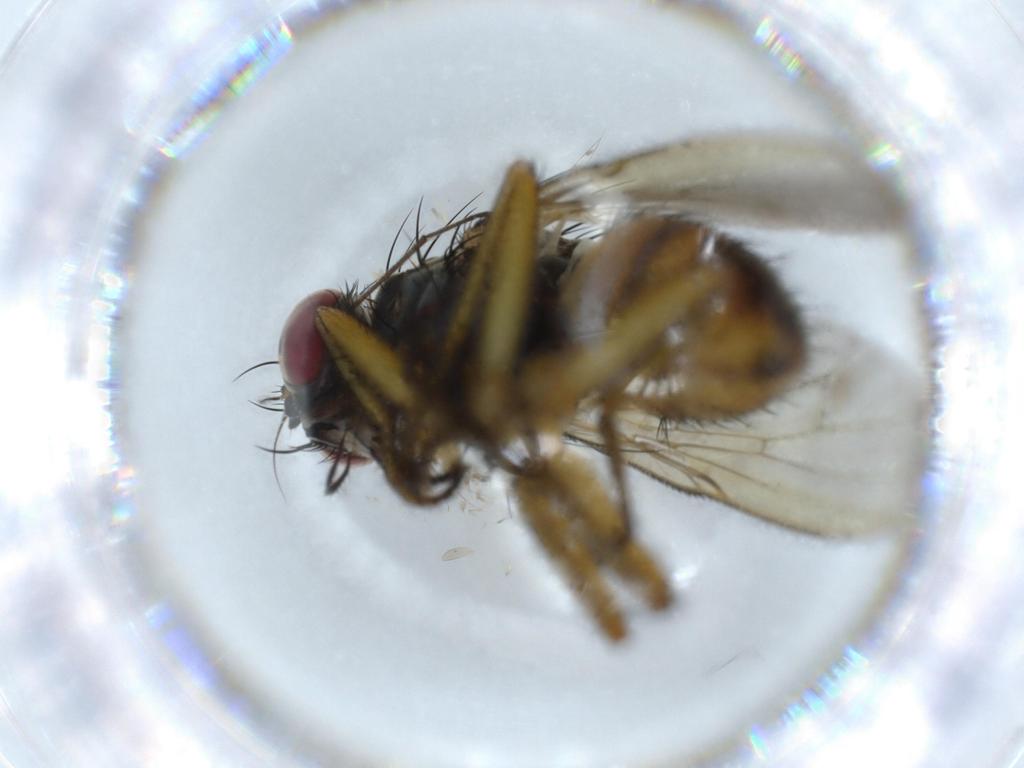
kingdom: Animalia
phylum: Arthropoda
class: Insecta
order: Diptera
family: Muscidae
